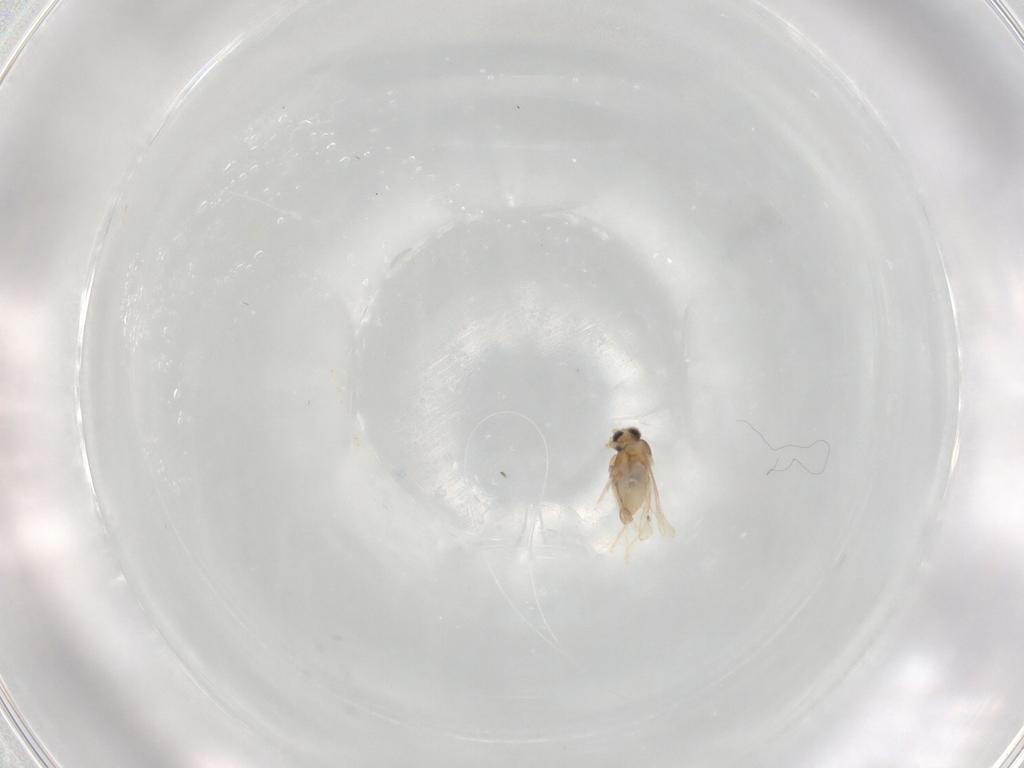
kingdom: Animalia
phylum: Arthropoda
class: Insecta
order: Diptera
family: Cecidomyiidae
